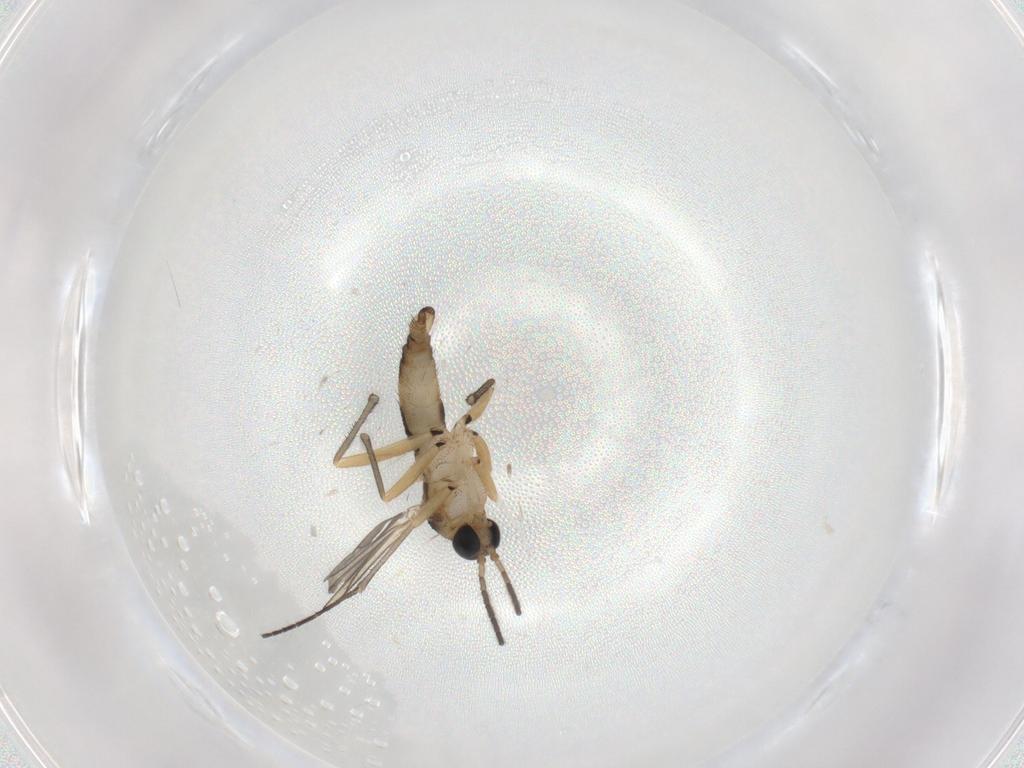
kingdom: Animalia
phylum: Arthropoda
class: Insecta
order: Diptera
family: Sciaridae
